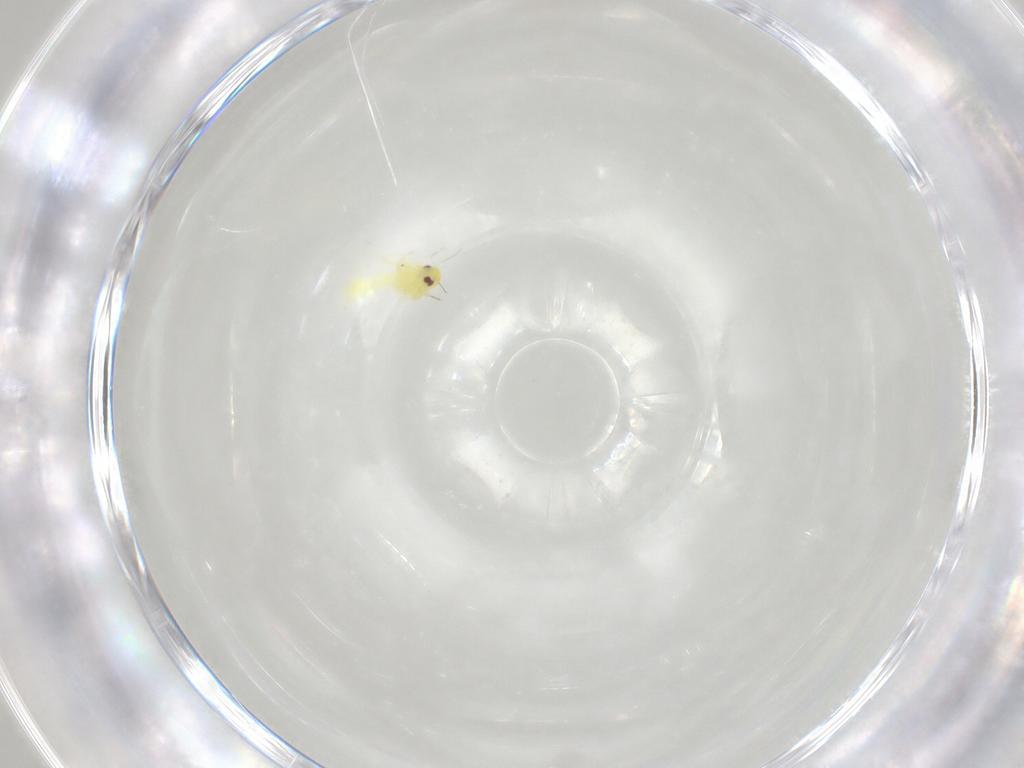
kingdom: Animalia
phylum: Arthropoda
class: Insecta
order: Hemiptera
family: Aleyrodidae
